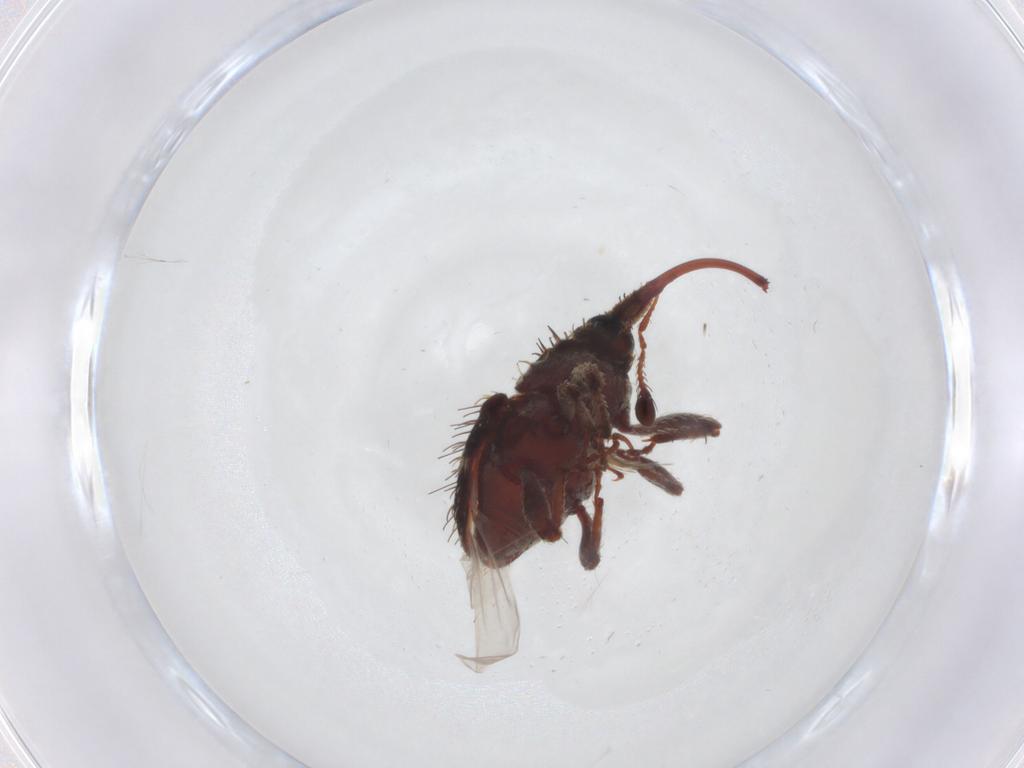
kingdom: Animalia
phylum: Arthropoda
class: Insecta
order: Coleoptera
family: Curculionidae
